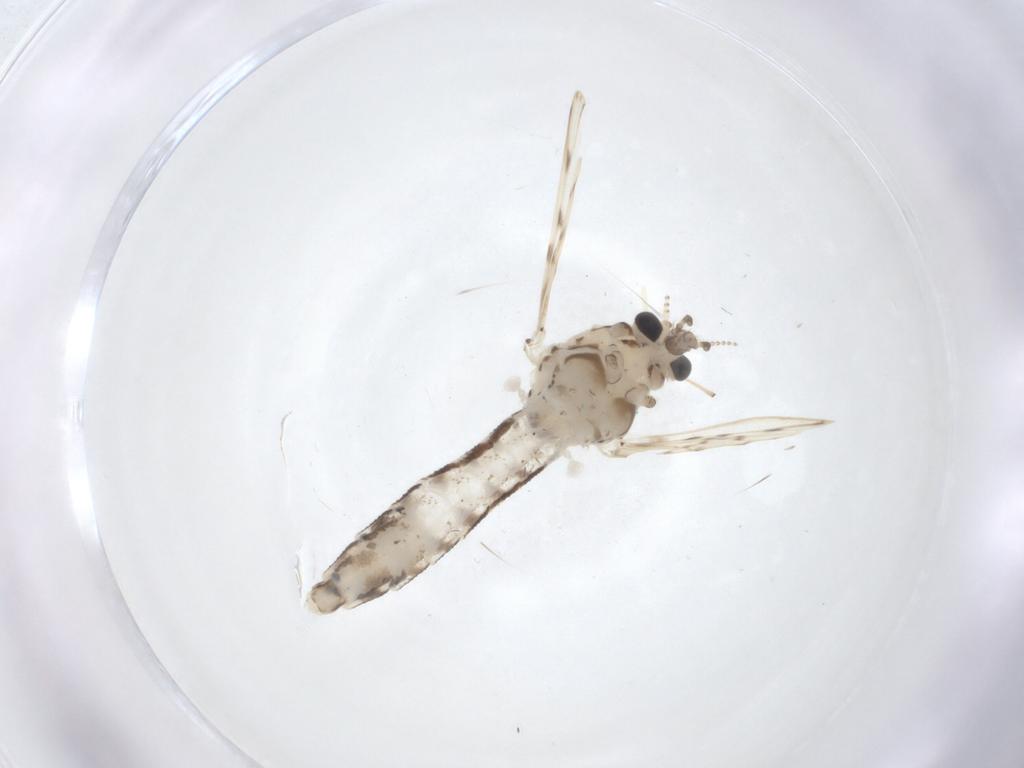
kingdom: Animalia
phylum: Arthropoda
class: Insecta
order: Diptera
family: Chaoboridae
